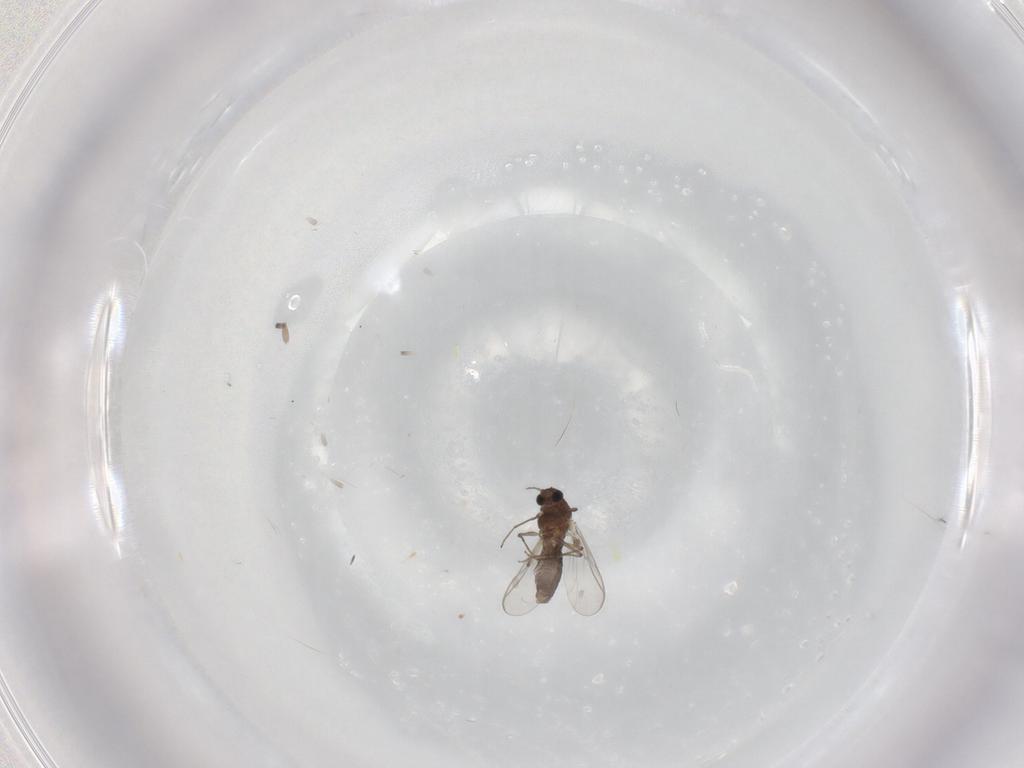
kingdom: Animalia
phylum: Arthropoda
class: Insecta
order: Diptera
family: Chironomidae
